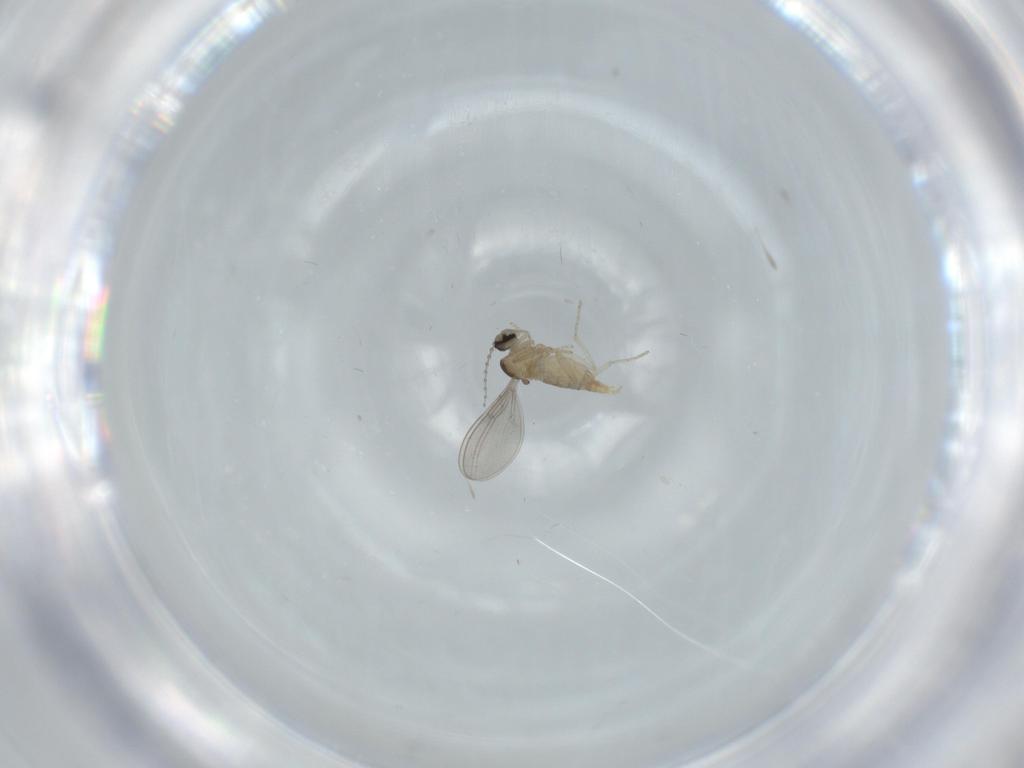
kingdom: Animalia
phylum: Arthropoda
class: Insecta
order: Diptera
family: Cecidomyiidae
